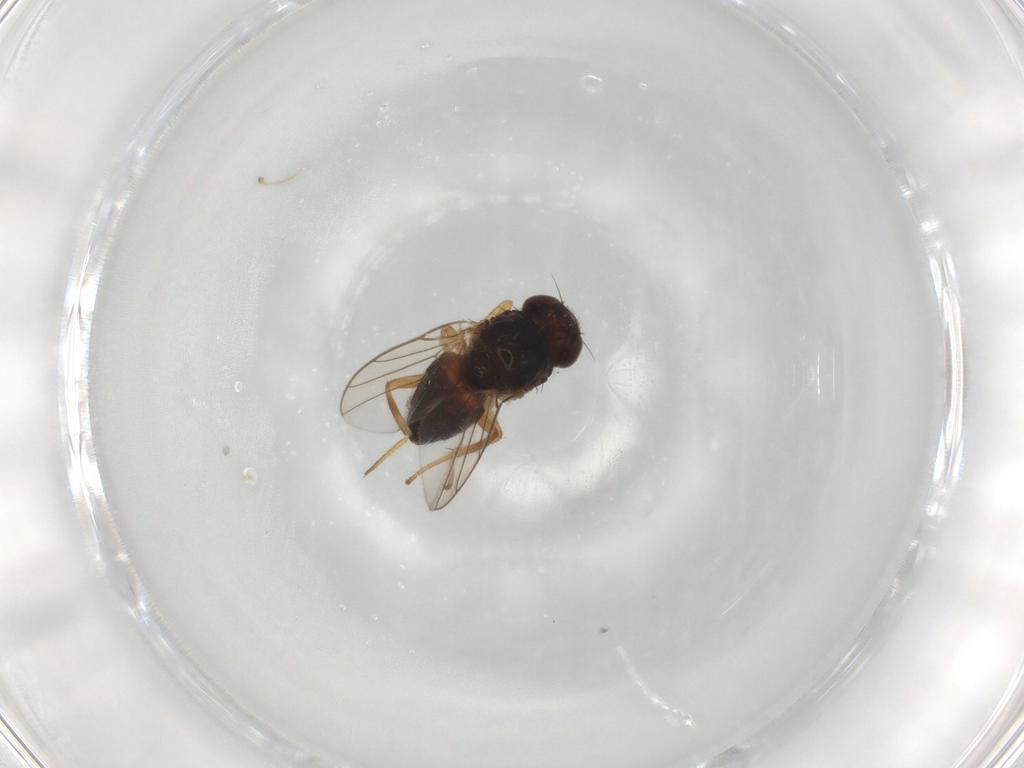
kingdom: Animalia
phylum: Arthropoda
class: Insecta
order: Diptera
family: Chloropidae
